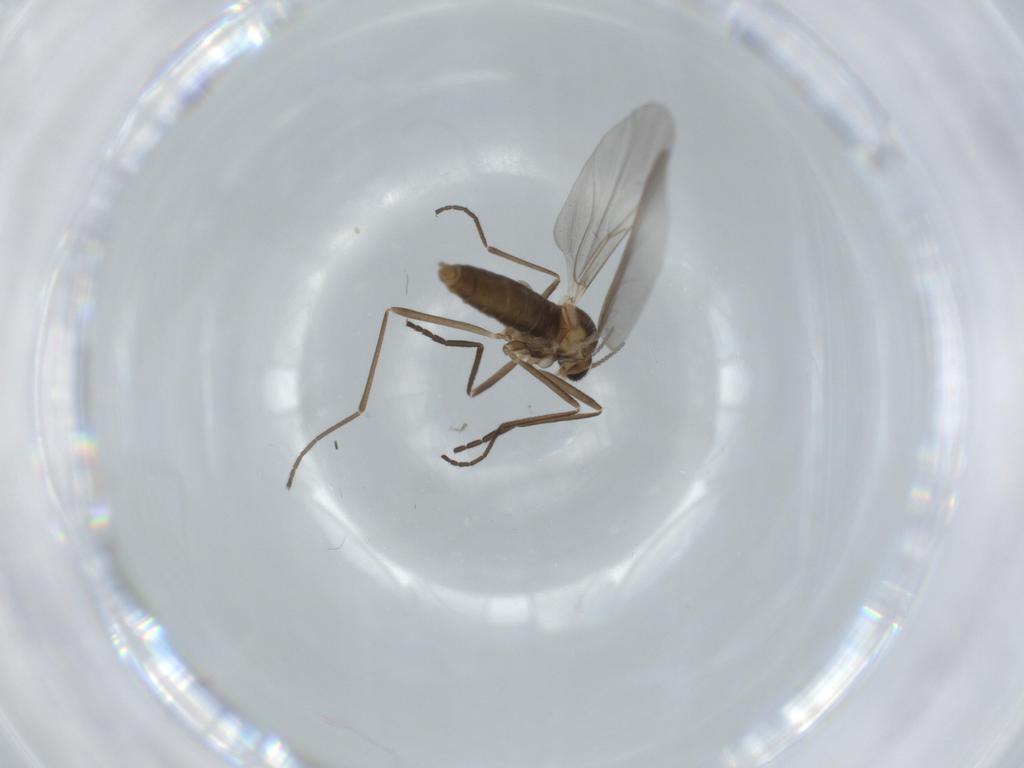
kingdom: Animalia
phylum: Arthropoda
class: Insecta
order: Diptera
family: Cecidomyiidae
